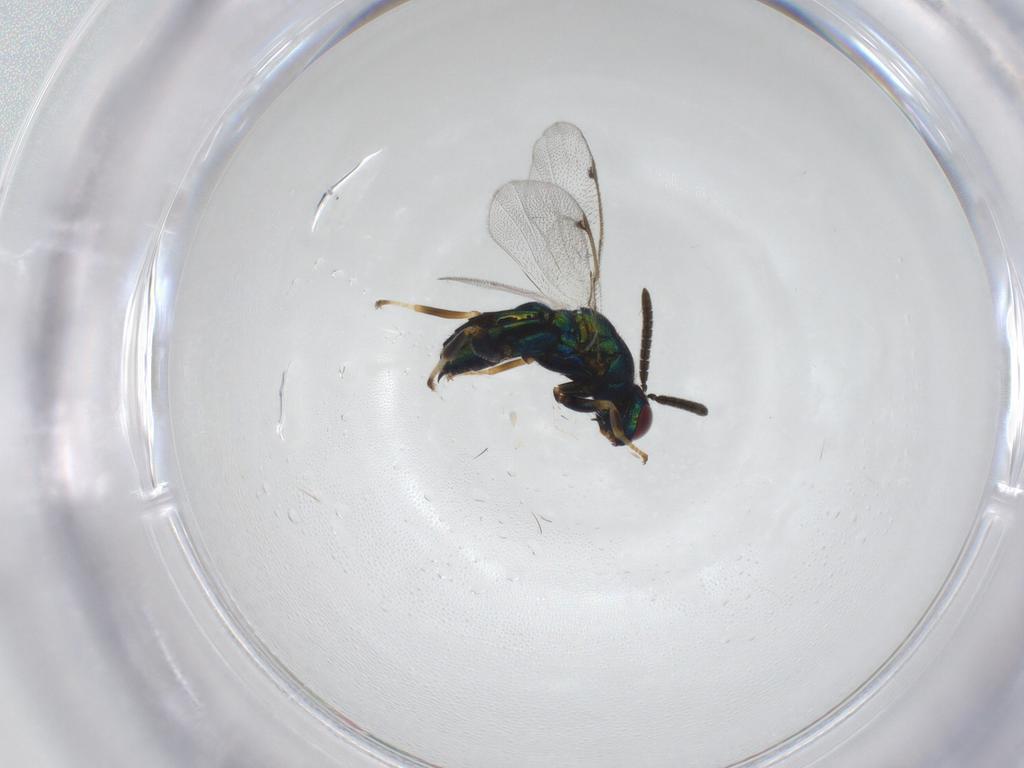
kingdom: Animalia
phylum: Arthropoda
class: Insecta
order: Hymenoptera
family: Torymidae
